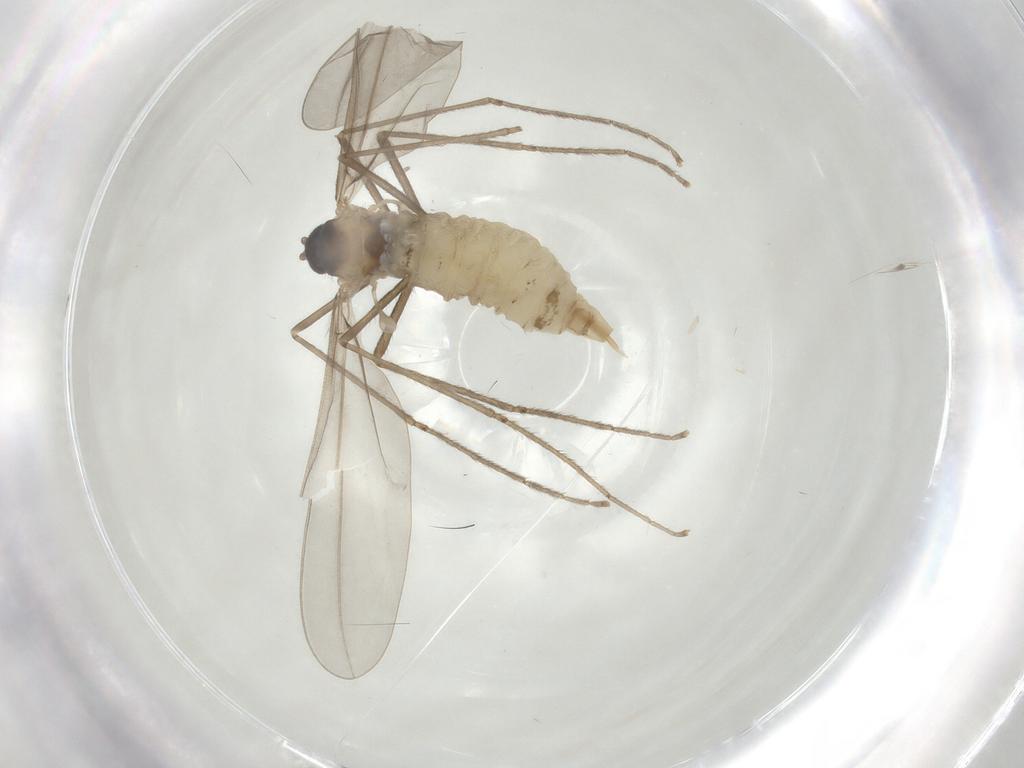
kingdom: Animalia
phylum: Arthropoda
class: Insecta
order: Diptera
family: Cecidomyiidae
